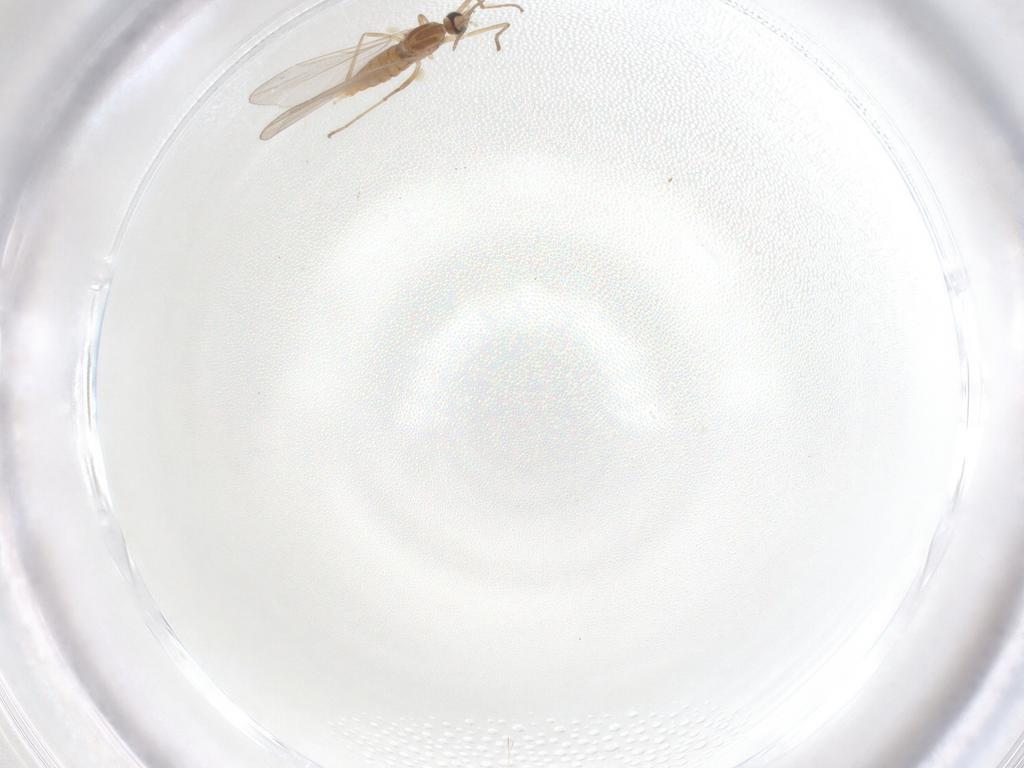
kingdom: Animalia
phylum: Arthropoda
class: Insecta
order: Diptera
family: Cecidomyiidae
